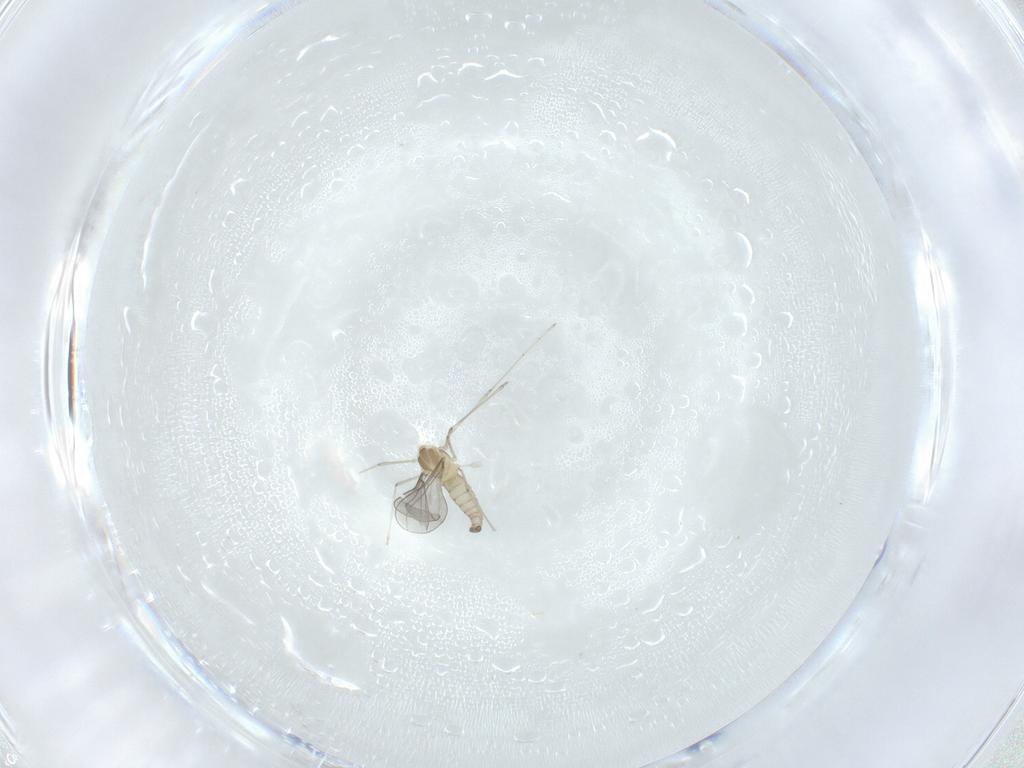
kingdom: Animalia
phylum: Arthropoda
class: Insecta
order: Diptera
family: Cecidomyiidae
